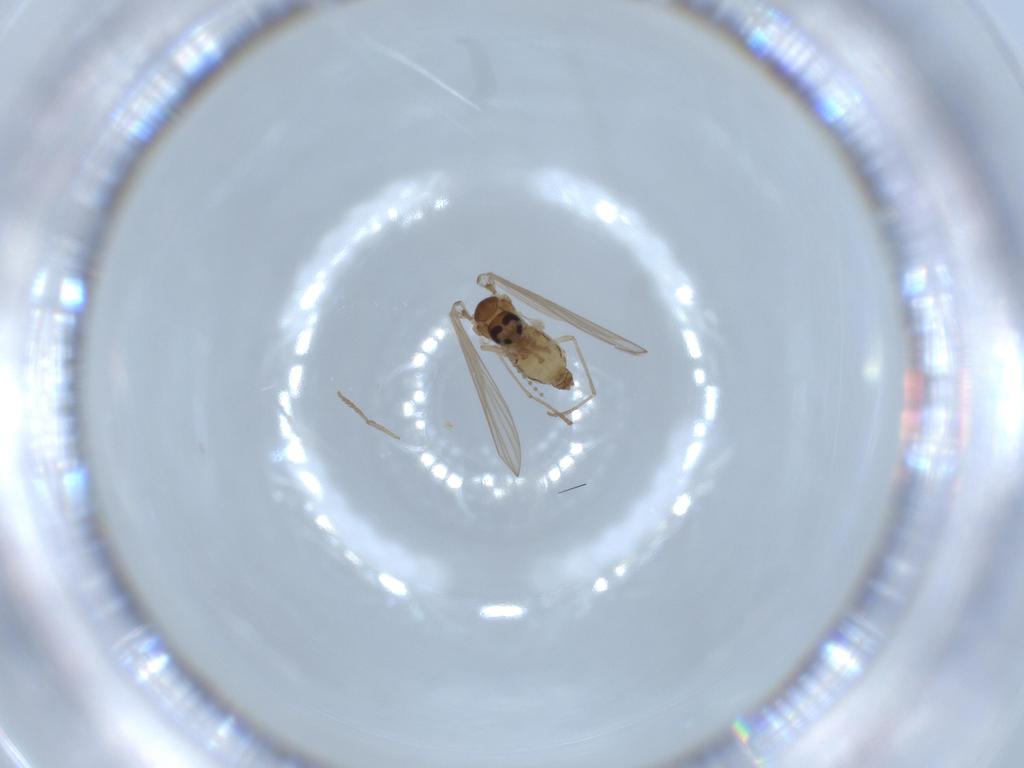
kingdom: Animalia
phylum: Arthropoda
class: Insecta
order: Diptera
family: Psychodidae
